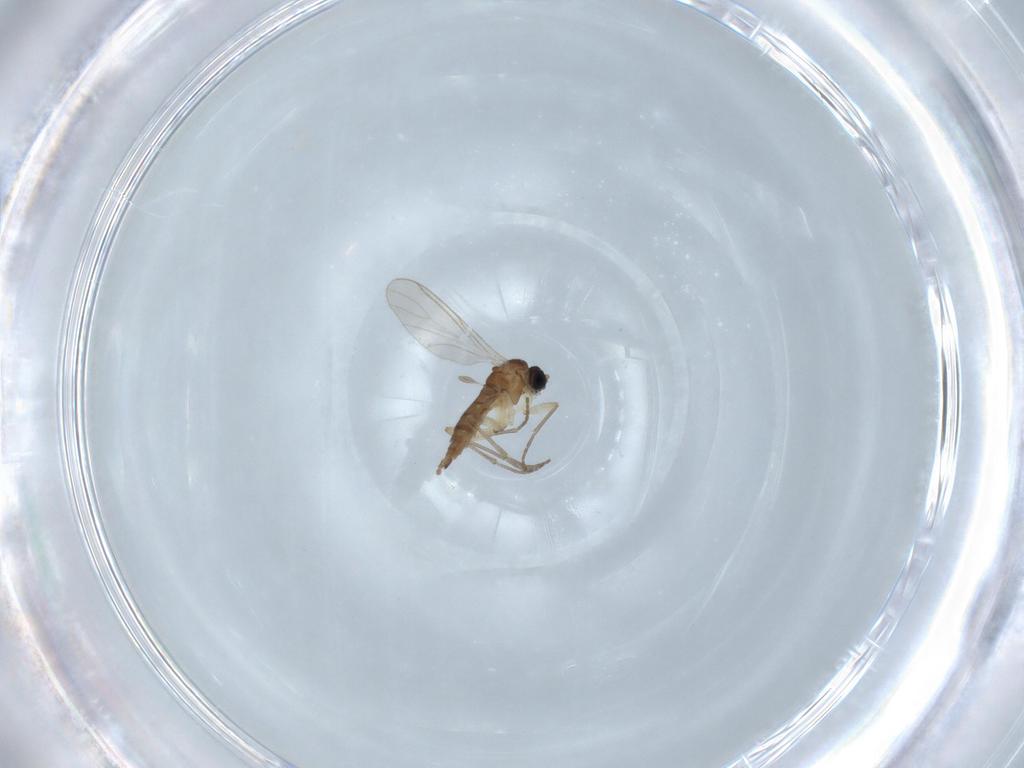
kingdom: Animalia
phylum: Arthropoda
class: Insecta
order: Diptera
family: Sciaridae
